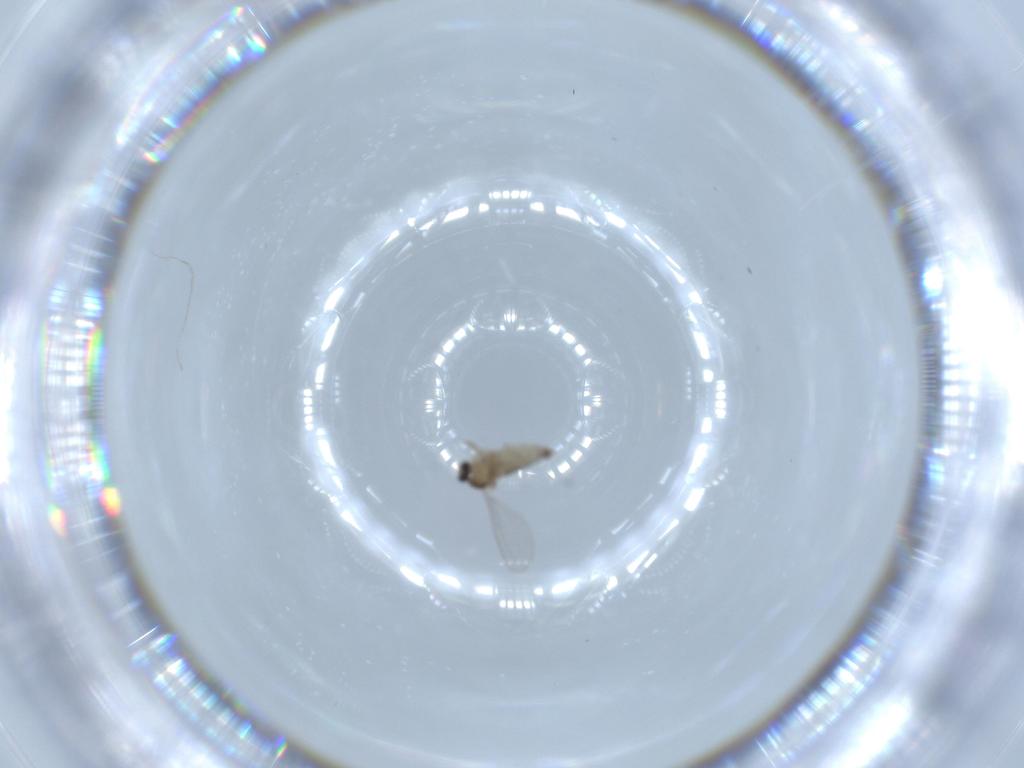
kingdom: Animalia
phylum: Arthropoda
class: Insecta
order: Diptera
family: Cecidomyiidae
